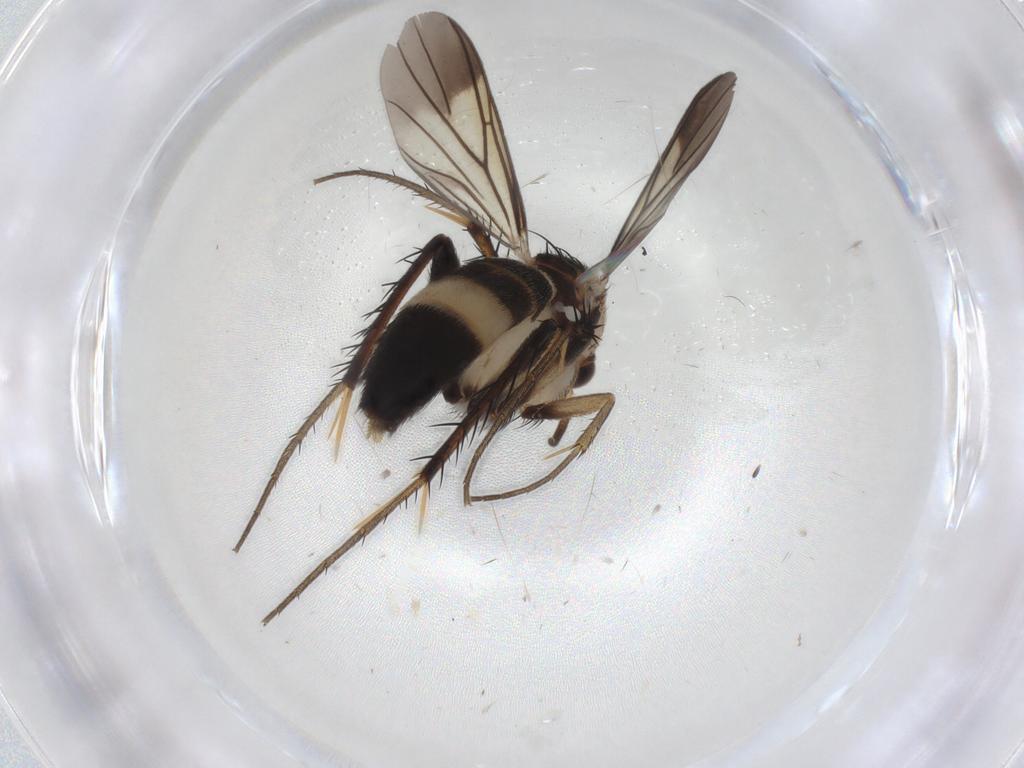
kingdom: Animalia
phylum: Arthropoda
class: Insecta
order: Diptera
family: Mycetophilidae
